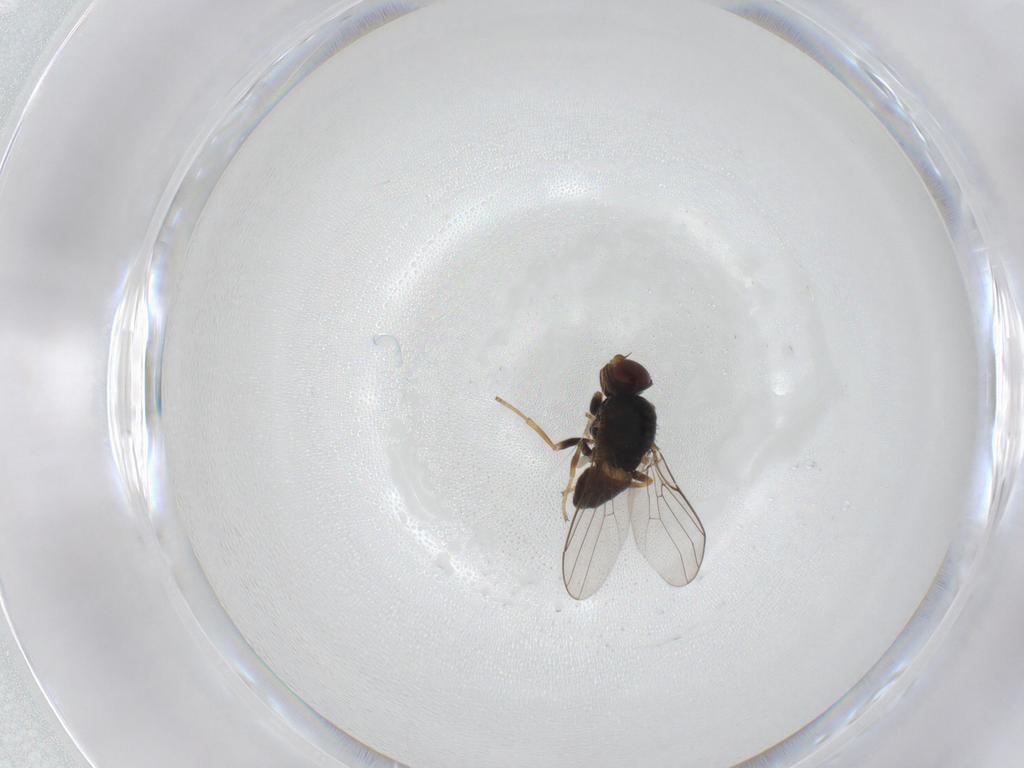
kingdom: Animalia
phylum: Arthropoda
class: Insecta
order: Diptera
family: Chloropidae
